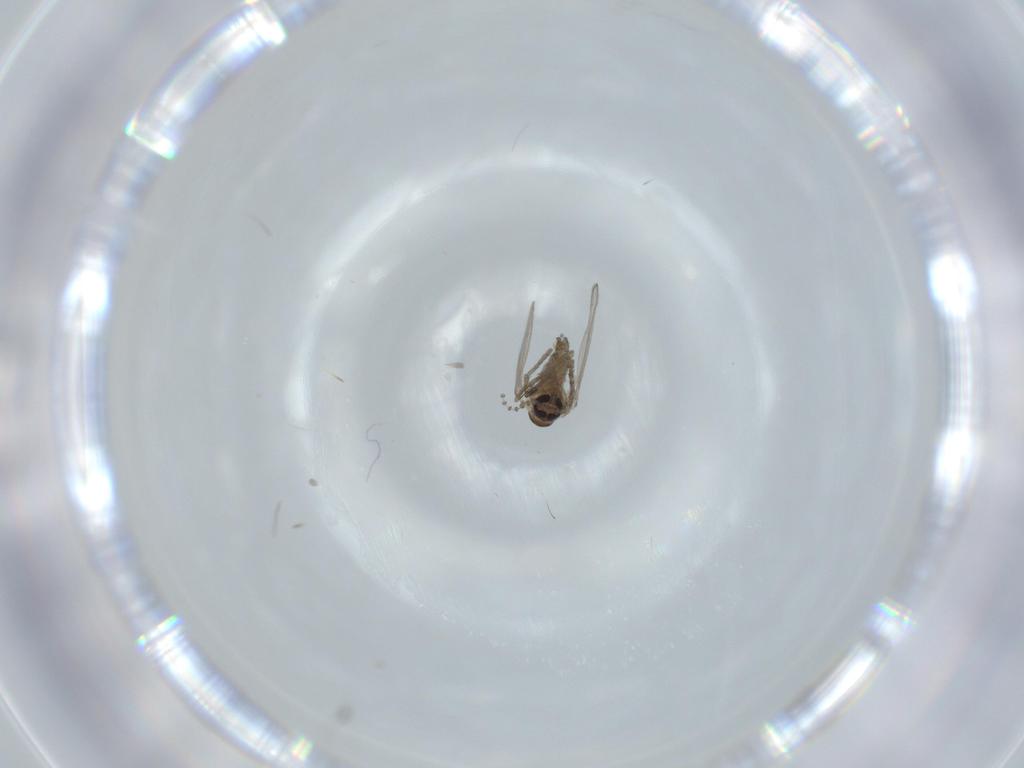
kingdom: Animalia
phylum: Arthropoda
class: Insecta
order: Diptera
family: Psychodidae
